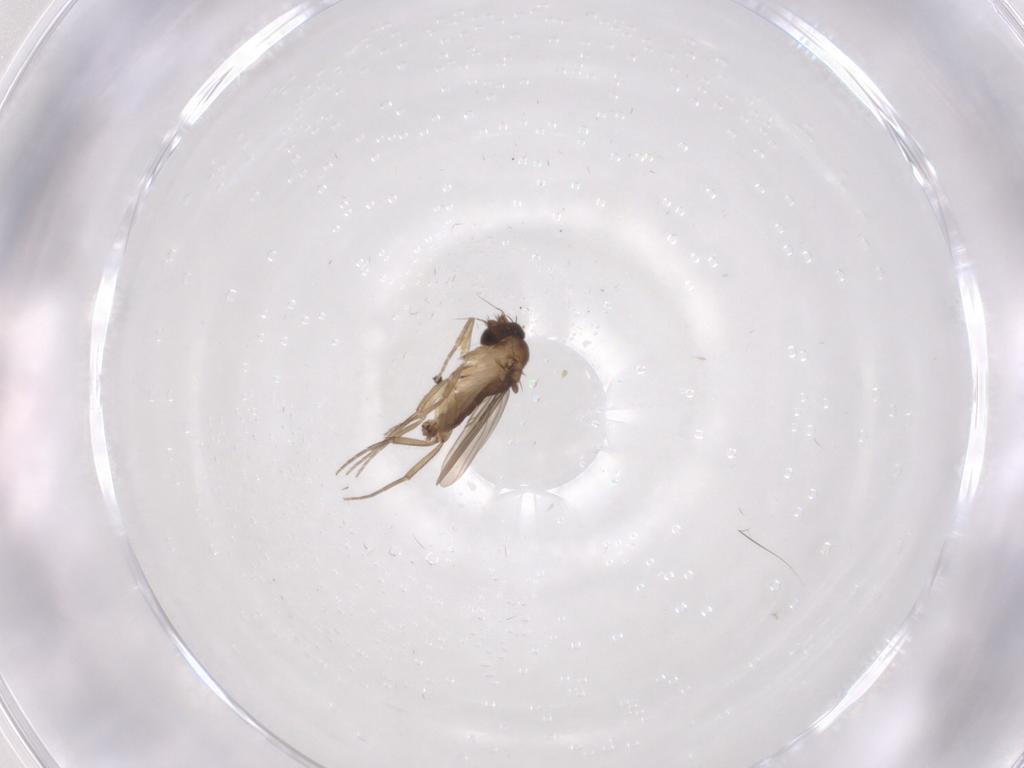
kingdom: Animalia
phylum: Arthropoda
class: Insecta
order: Diptera
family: Phoridae
